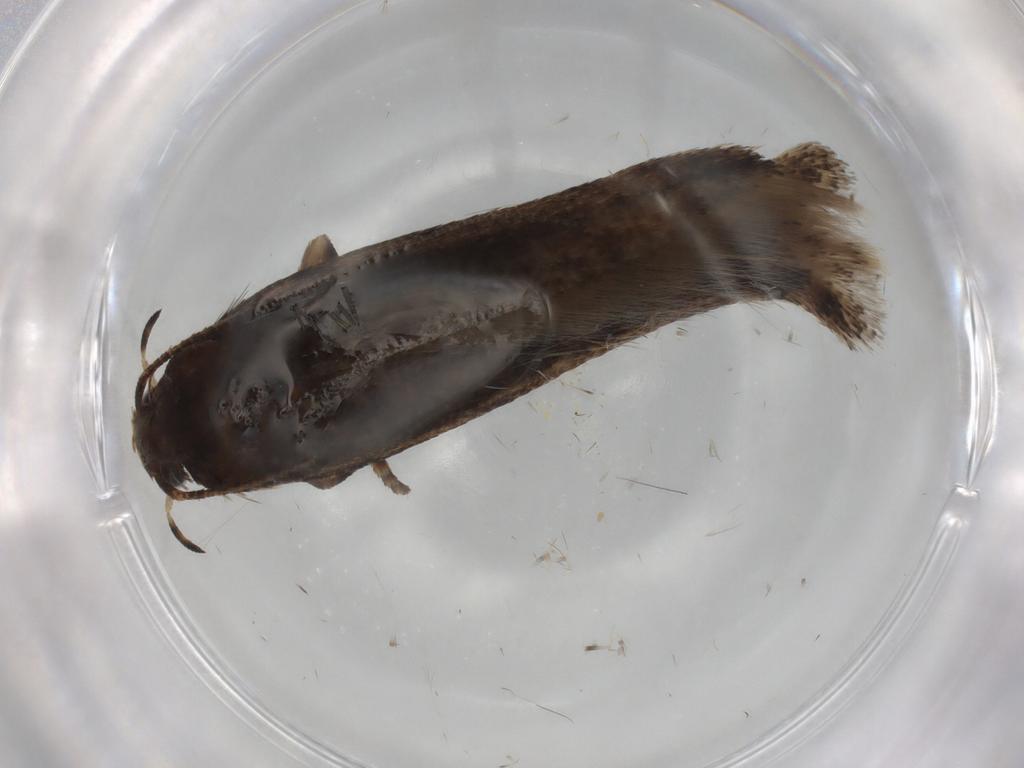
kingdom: Animalia
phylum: Arthropoda
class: Insecta
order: Lepidoptera
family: Gelechiidae
